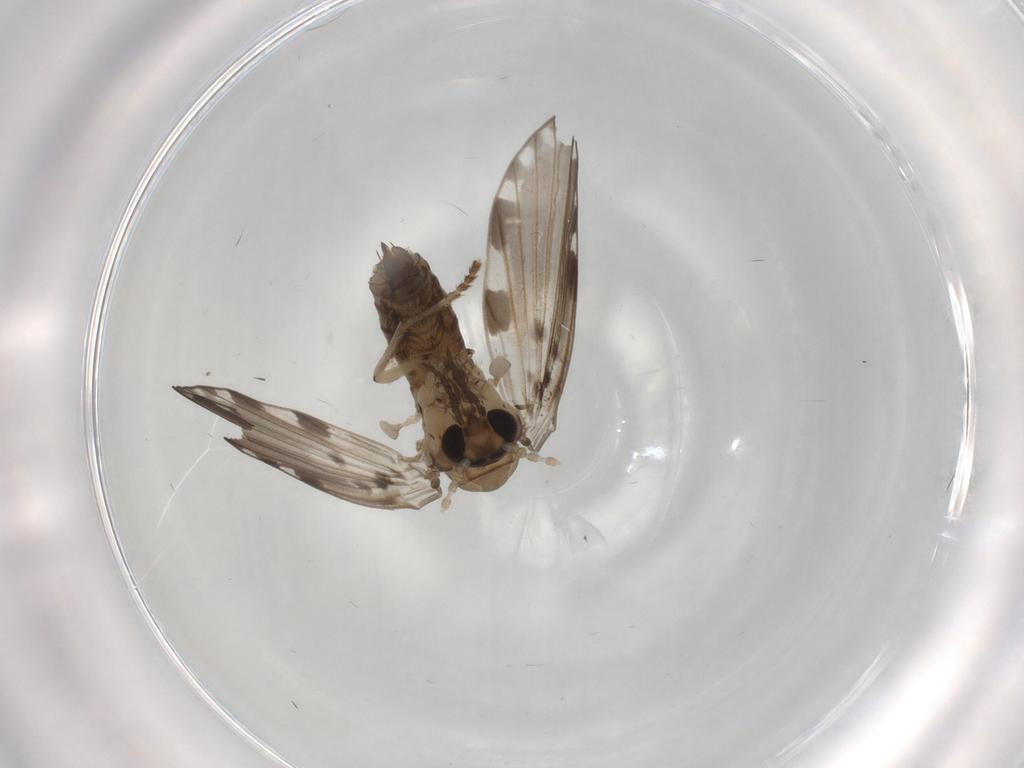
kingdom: Animalia
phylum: Arthropoda
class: Insecta
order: Diptera
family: Psychodidae
